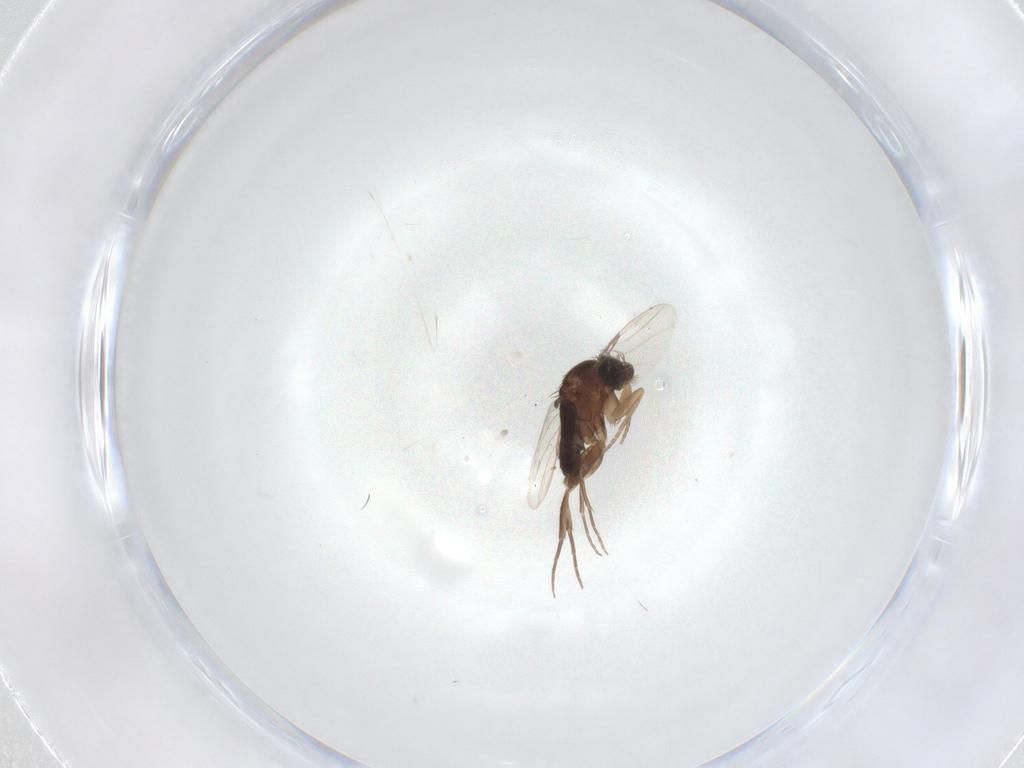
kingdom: Animalia
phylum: Arthropoda
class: Insecta
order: Diptera
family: Phoridae
